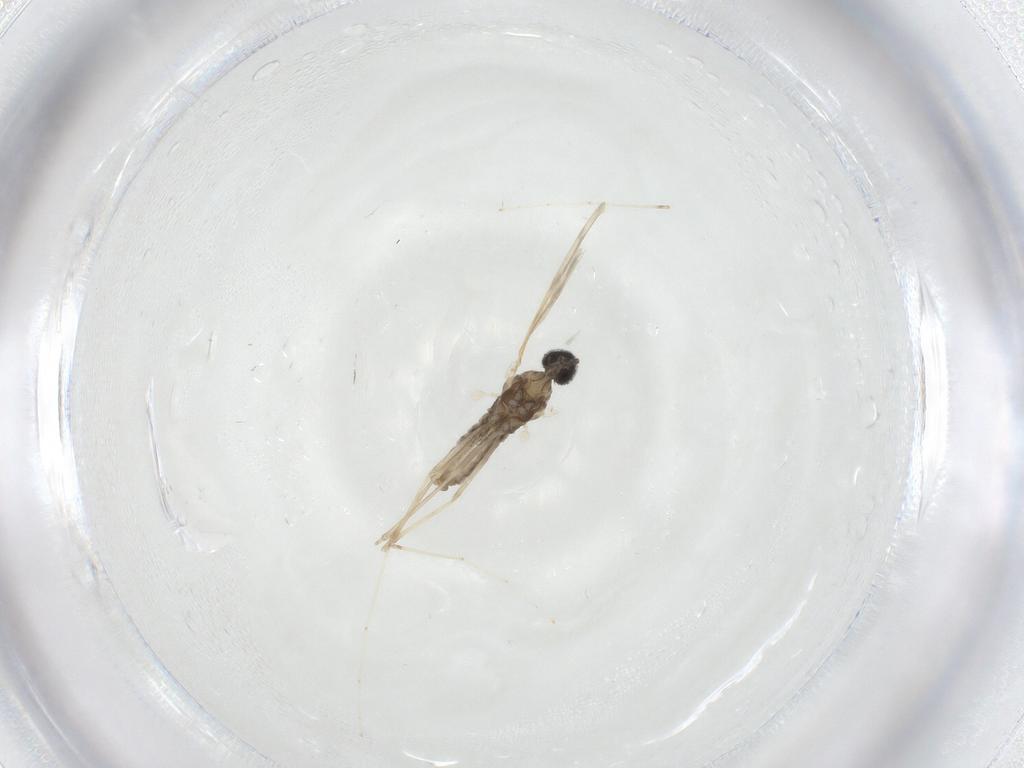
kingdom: Animalia
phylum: Arthropoda
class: Insecta
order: Diptera
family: Cecidomyiidae
